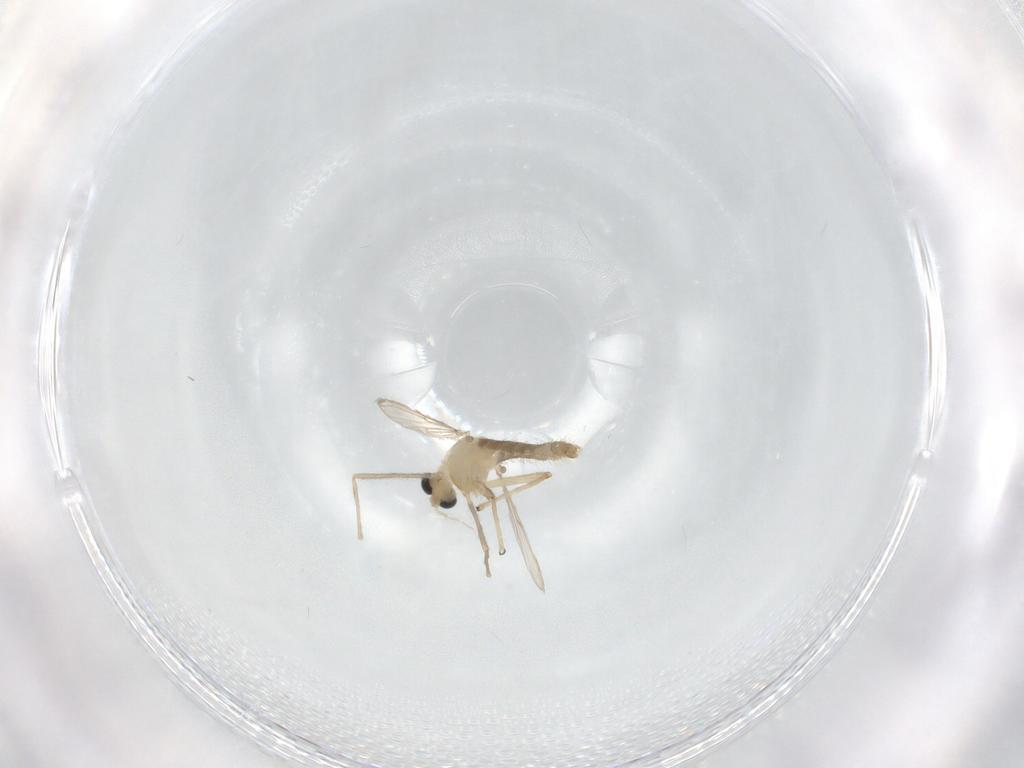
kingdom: Animalia
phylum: Arthropoda
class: Insecta
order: Diptera
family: Chironomidae
